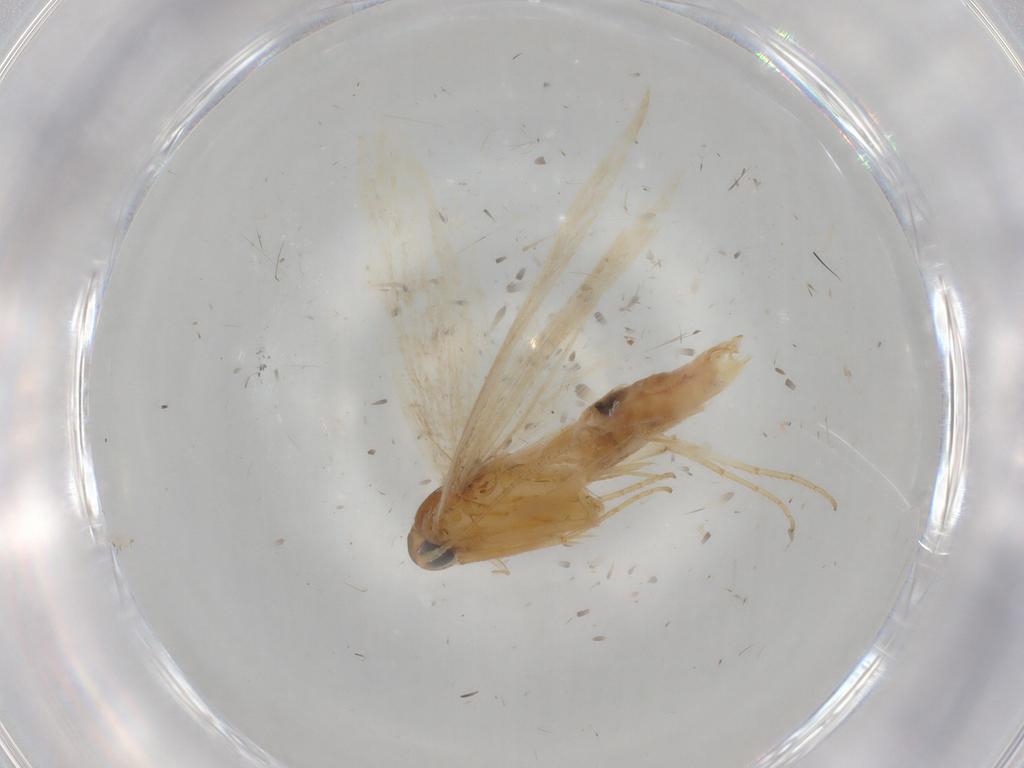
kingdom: Animalia
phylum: Arthropoda
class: Insecta
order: Lepidoptera
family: Gelechiidae
